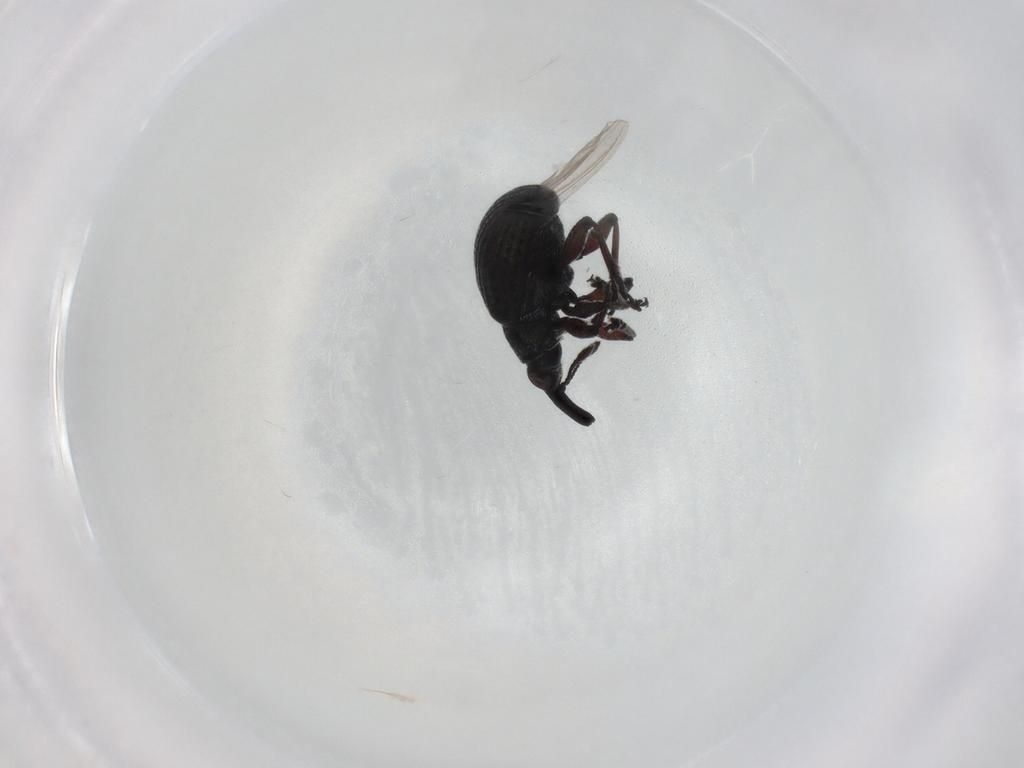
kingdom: Animalia
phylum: Arthropoda
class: Insecta
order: Coleoptera
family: Brentidae
